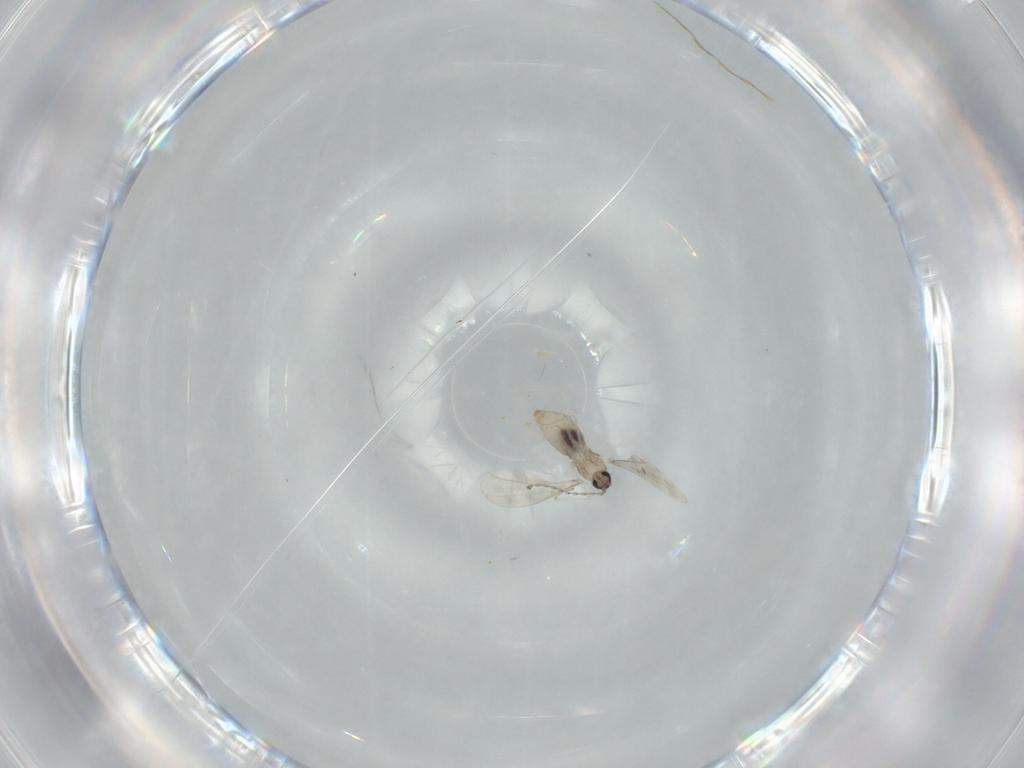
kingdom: Animalia
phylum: Arthropoda
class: Insecta
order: Diptera
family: Cecidomyiidae
